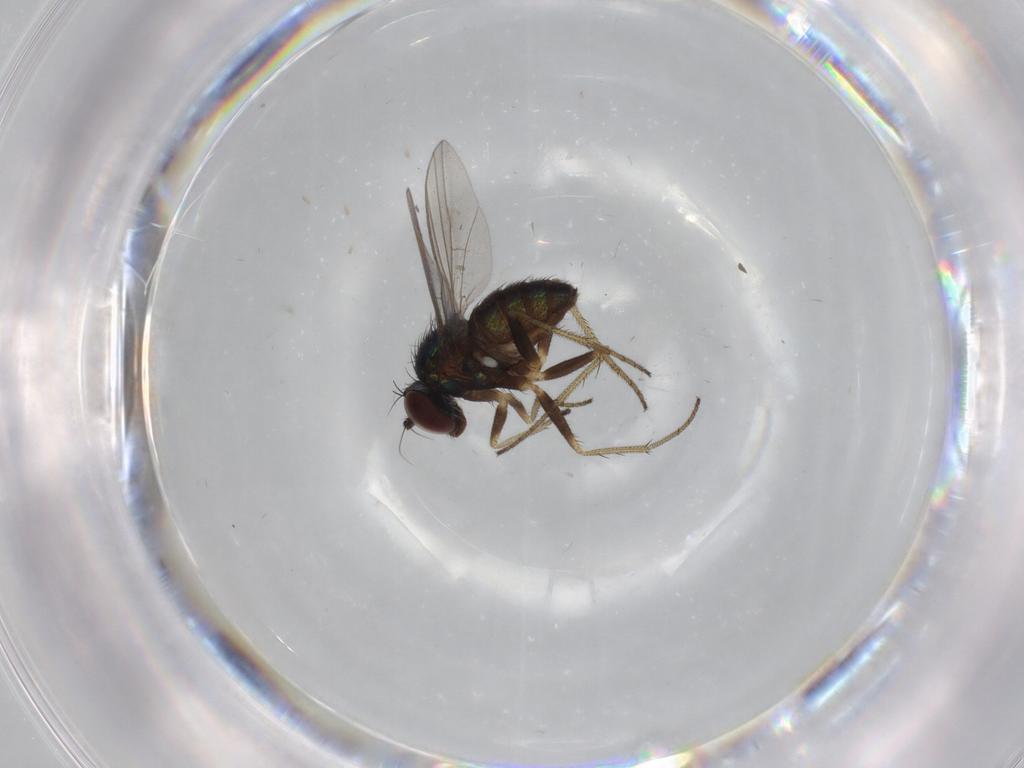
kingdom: Animalia
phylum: Arthropoda
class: Insecta
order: Diptera
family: Dolichopodidae
